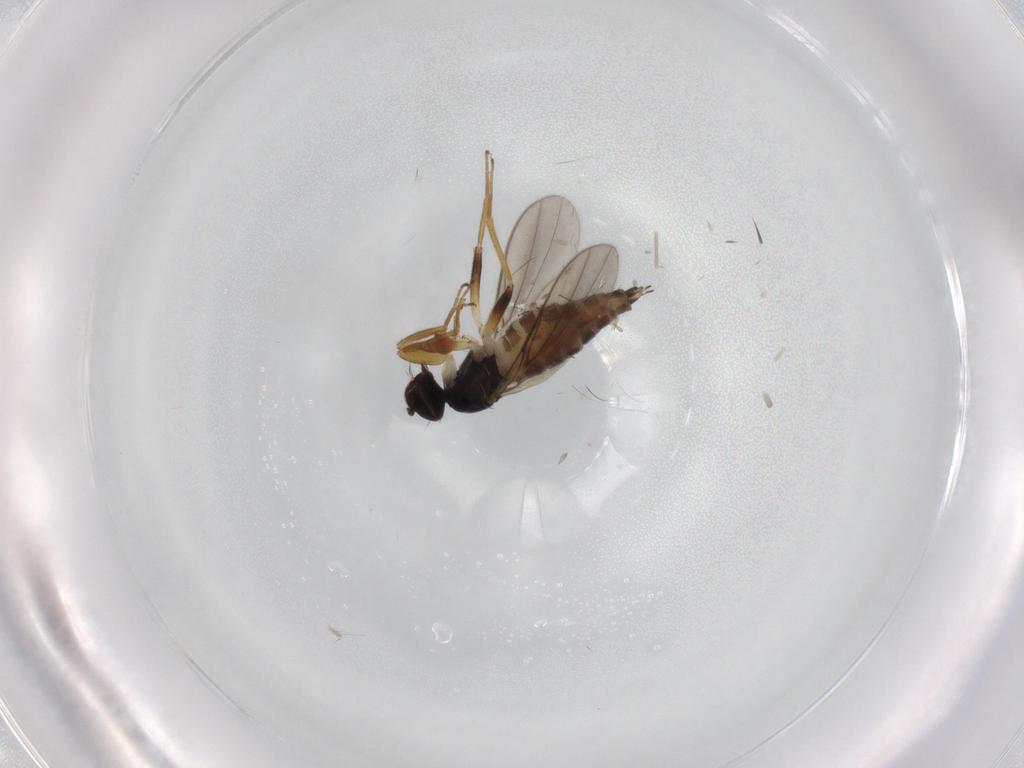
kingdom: Animalia
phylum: Arthropoda
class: Insecta
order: Diptera
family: Hybotidae
